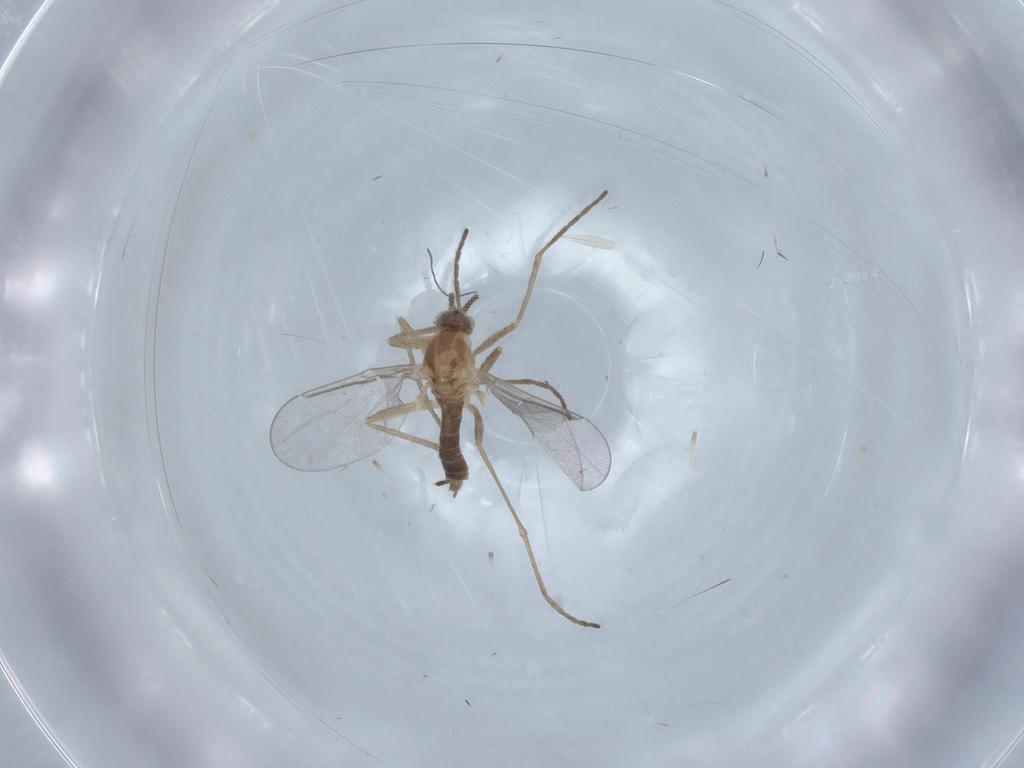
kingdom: Animalia
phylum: Arthropoda
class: Insecta
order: Diptera
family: Cecidomyiidae
